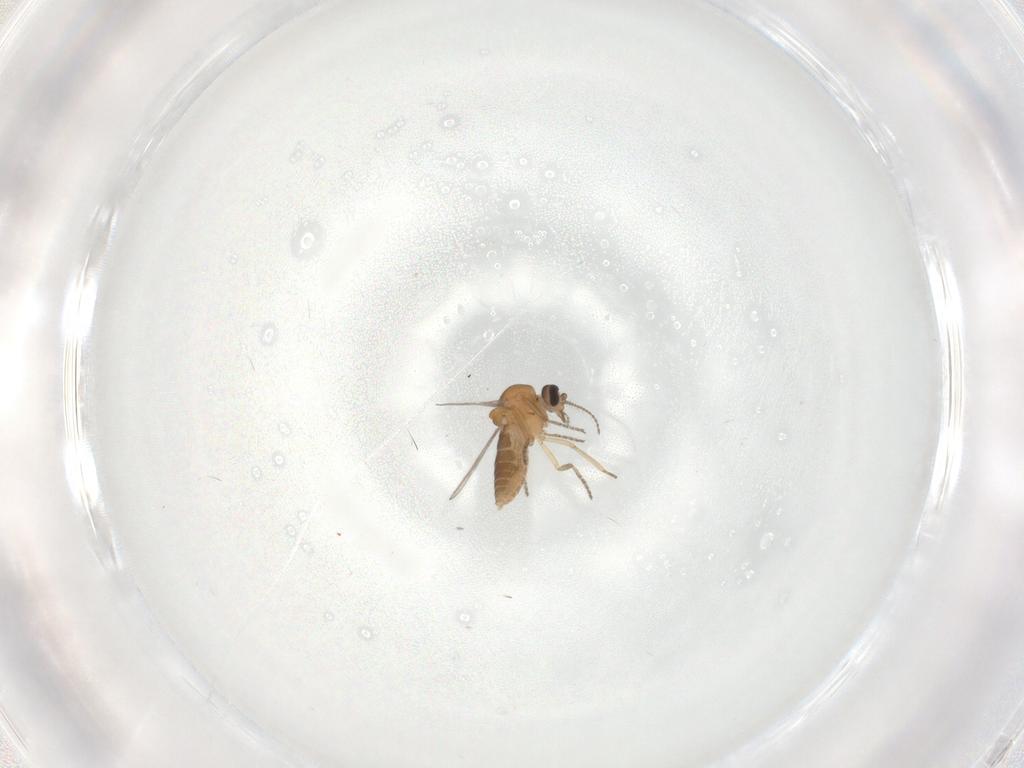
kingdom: Animalia
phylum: Arthropoda
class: Insecta
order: Diptera
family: Cecidomyiidae
